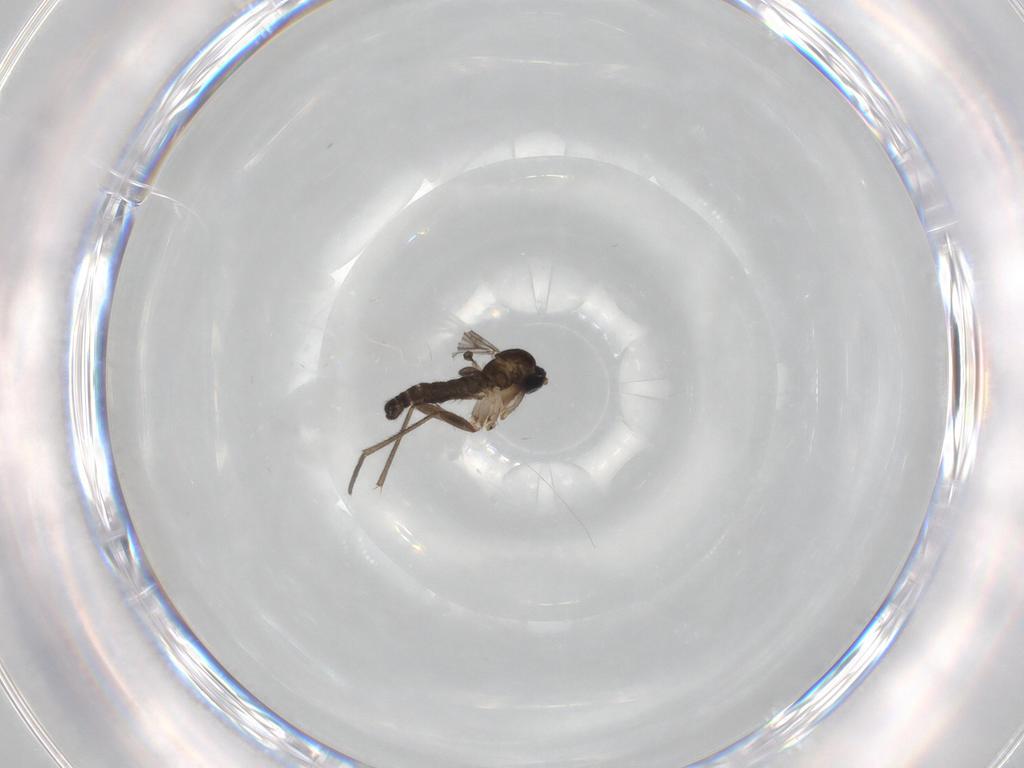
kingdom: Animalia
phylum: Arthropoda
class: Insecta
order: Diptera
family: Sciaridae
